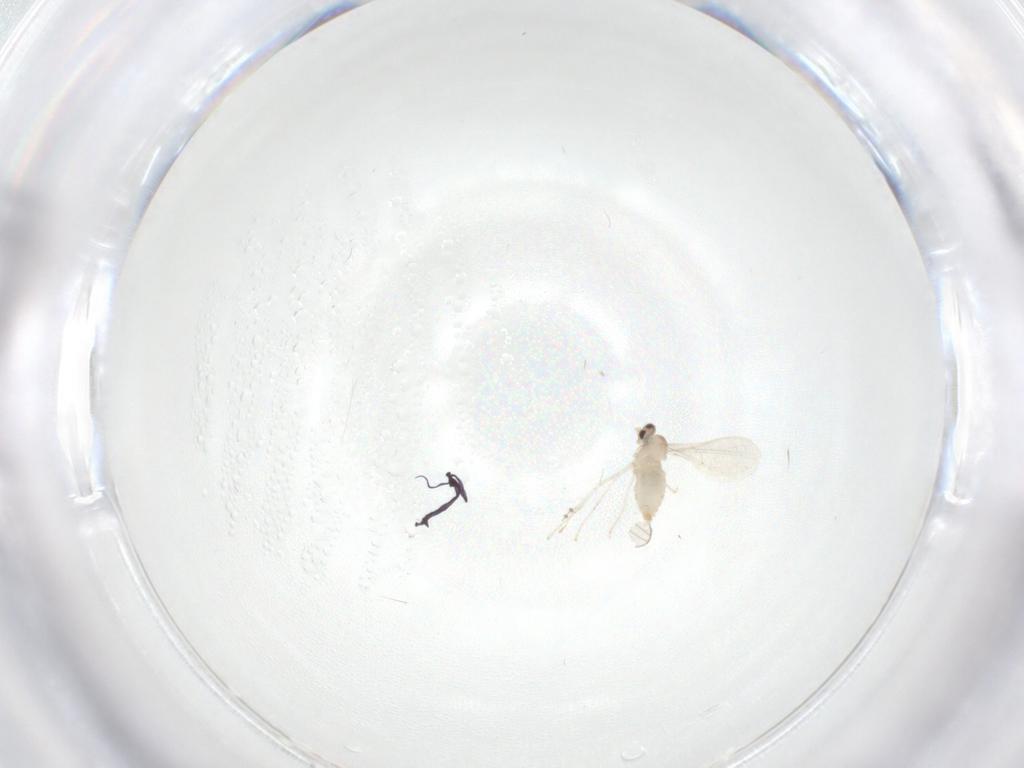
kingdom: Animalia
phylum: Arthropoda
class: Insecta
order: Diptera
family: Cecidomyiidae
